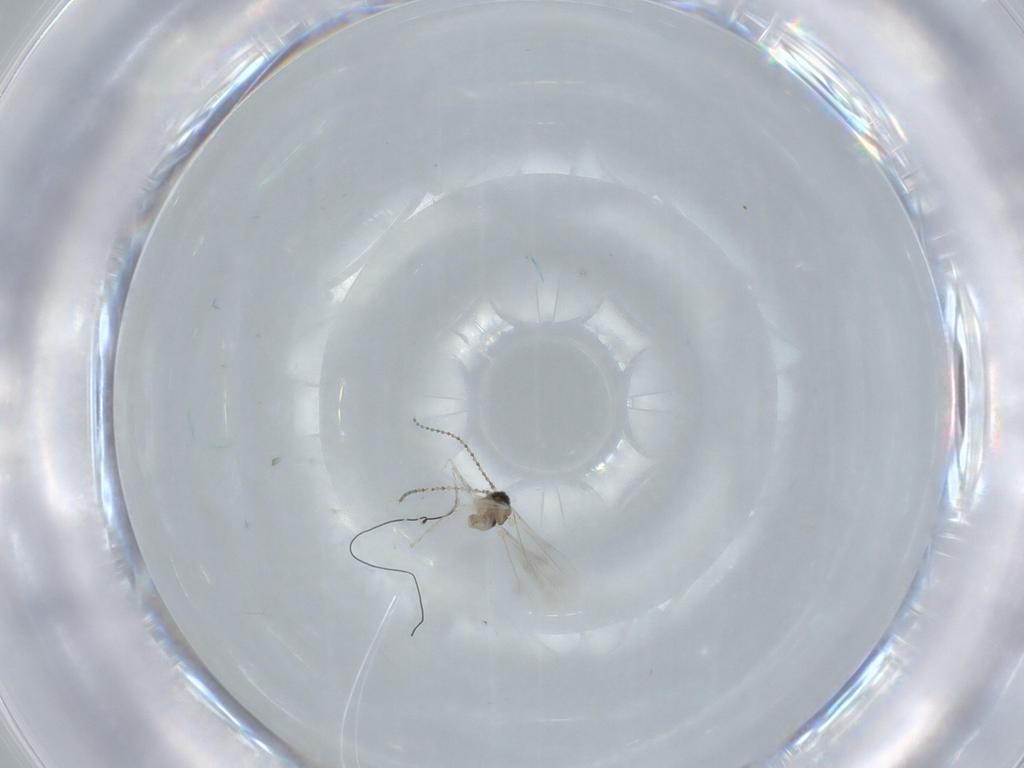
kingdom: Animalia
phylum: Arthropoda
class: Insecta
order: Diptera
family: Cecidomyiidae
